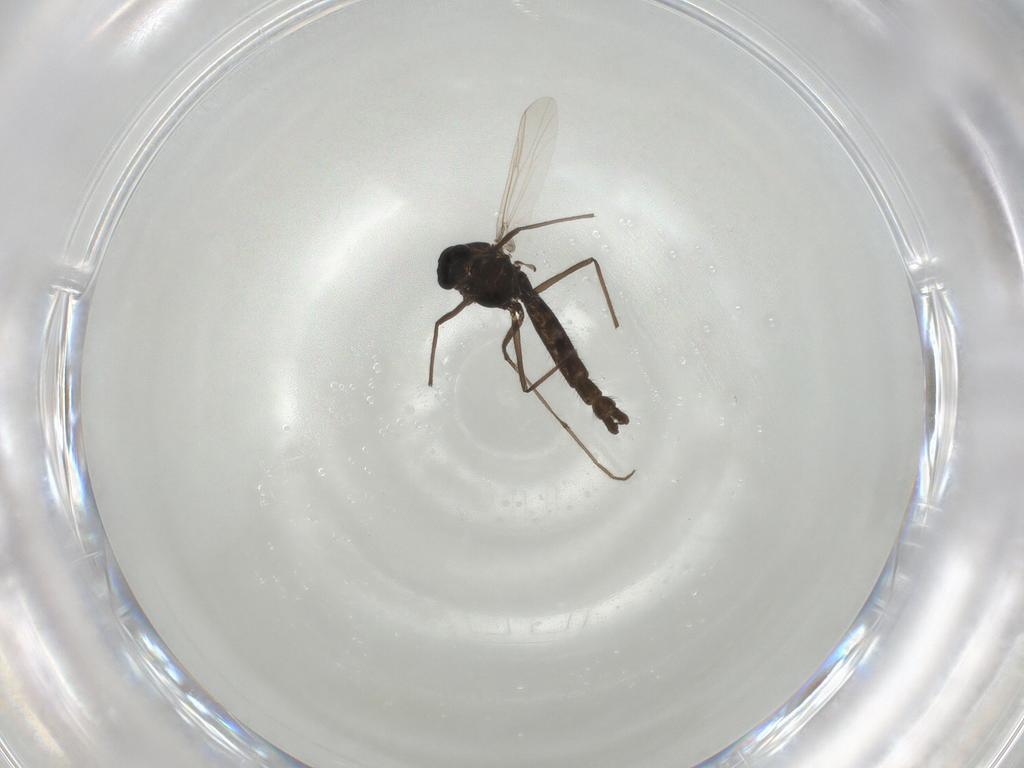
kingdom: Animalia
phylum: Arthropoda
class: Insecta
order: Diptera
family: Chironomidae
